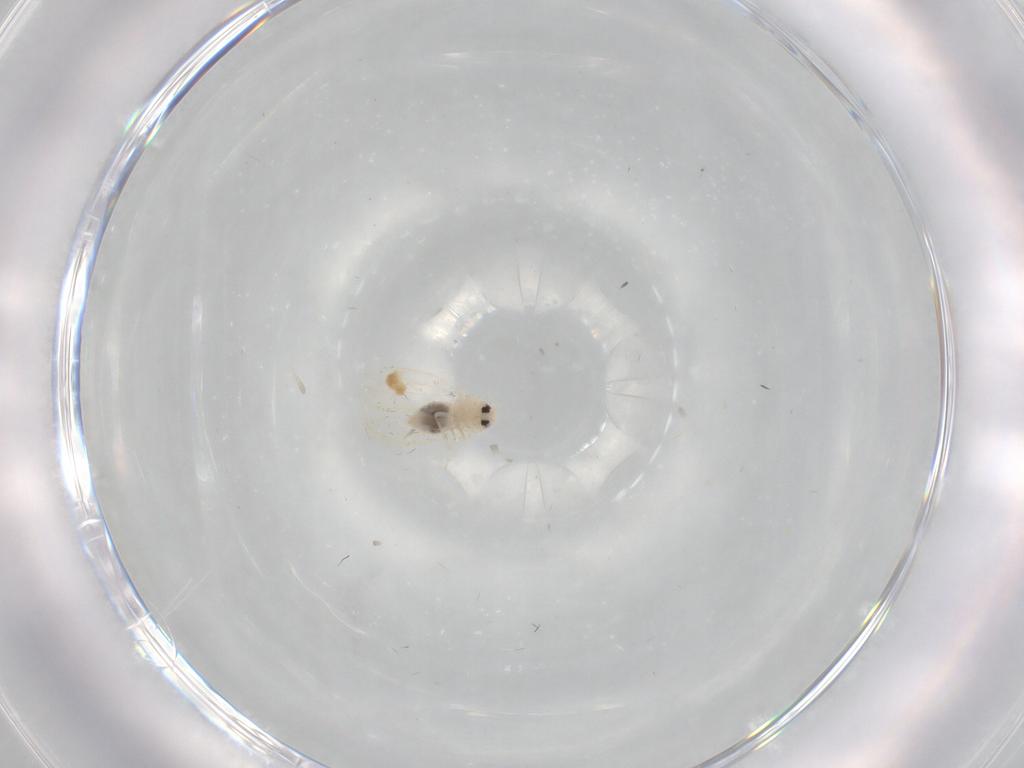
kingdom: Animalia
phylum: Arthropoda
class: Insecta
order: Hemiptera
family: Aleyrodidae
